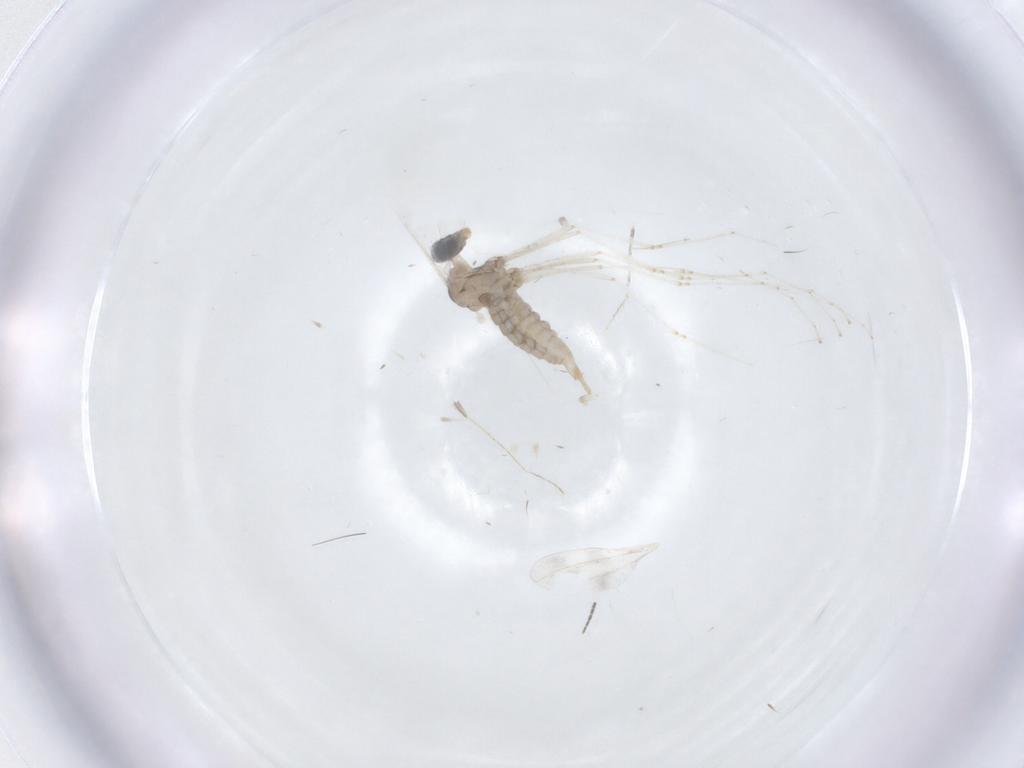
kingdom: Animalia
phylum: Arthropoda
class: Insecta
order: Diptera
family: Cecidomyiidae
